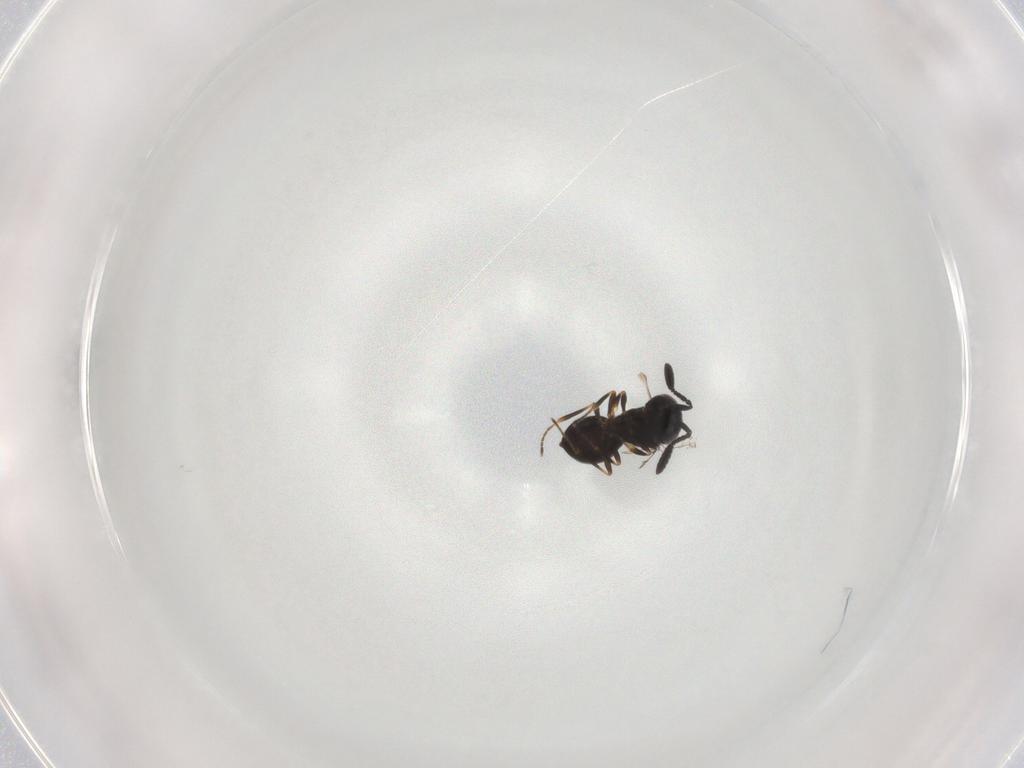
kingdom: Animalia
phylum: Arthropoda
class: Insecta
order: Hymenoptera
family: Scelionidae
